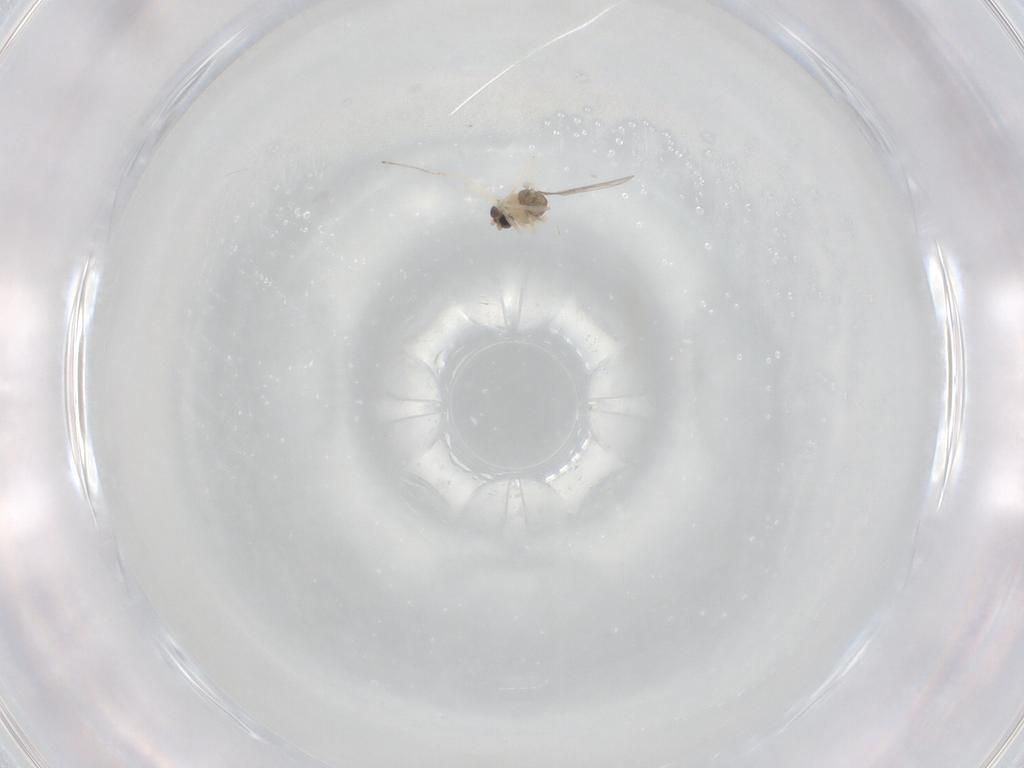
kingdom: Animalia
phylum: Arthropoda
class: Insecta
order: Diptera
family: Cecidomyiidae
